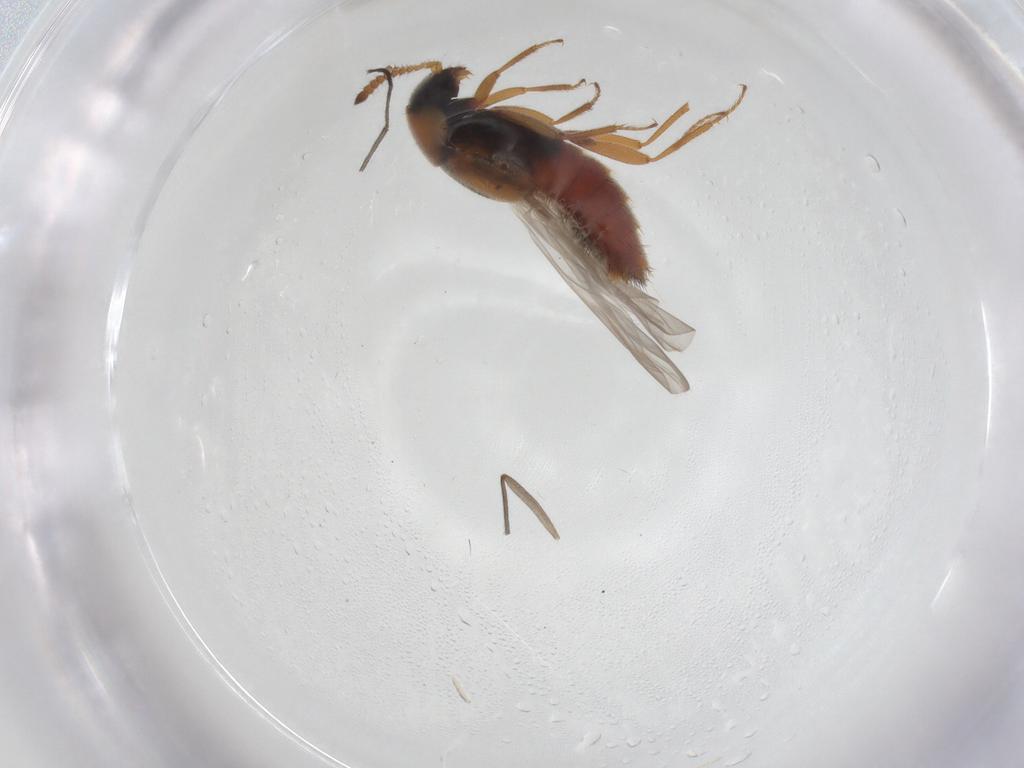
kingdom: Animalia
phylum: Arthropoda
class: Insecta
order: Coleoptera
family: Staphylinidae
